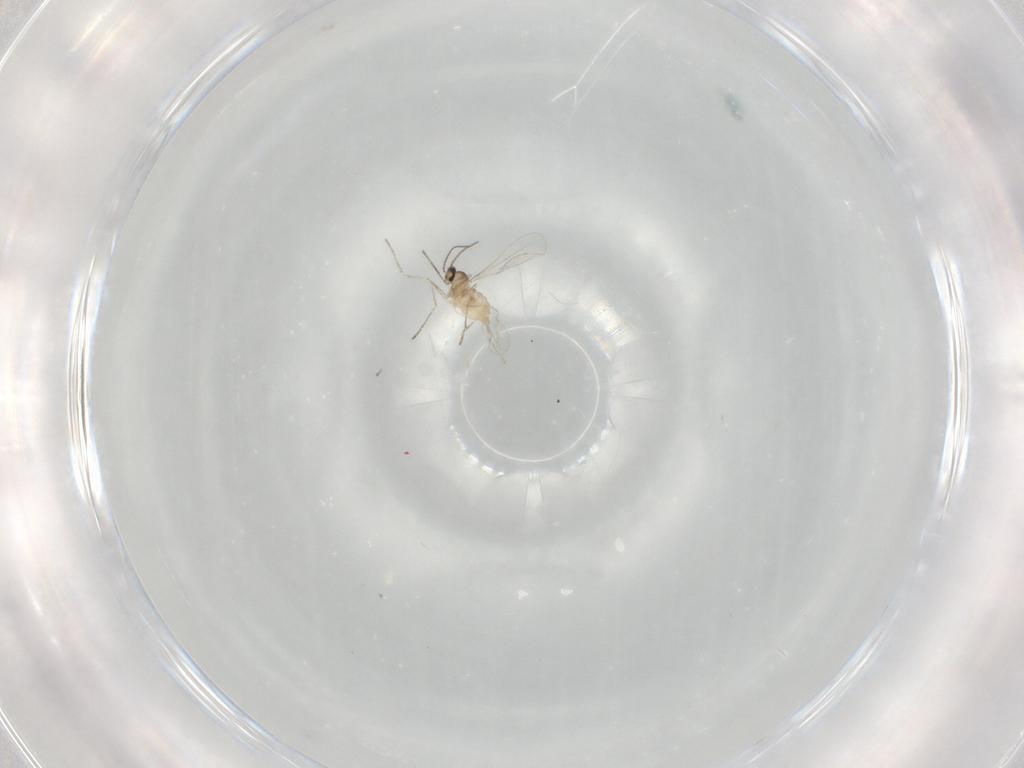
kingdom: Animalia
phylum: Arthropoda
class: Insecta
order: Diptera
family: Cecidomyiidae
